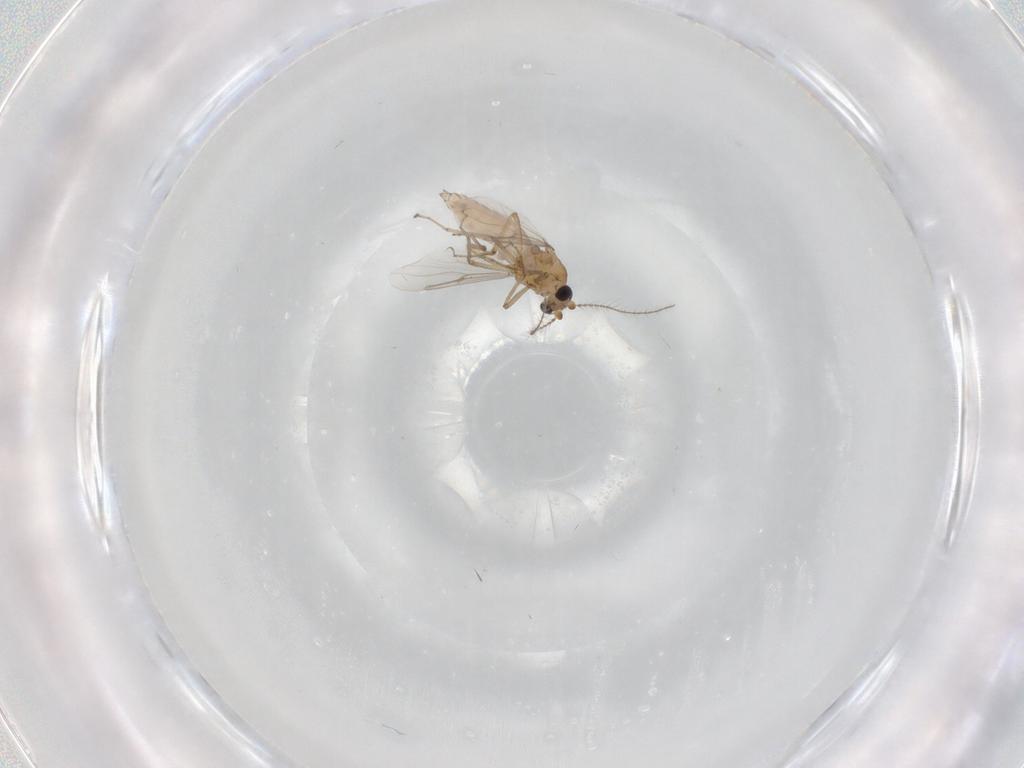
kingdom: Animalia
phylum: Arthropoda
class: Insecta
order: Diptera
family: Ceratopogonidae
